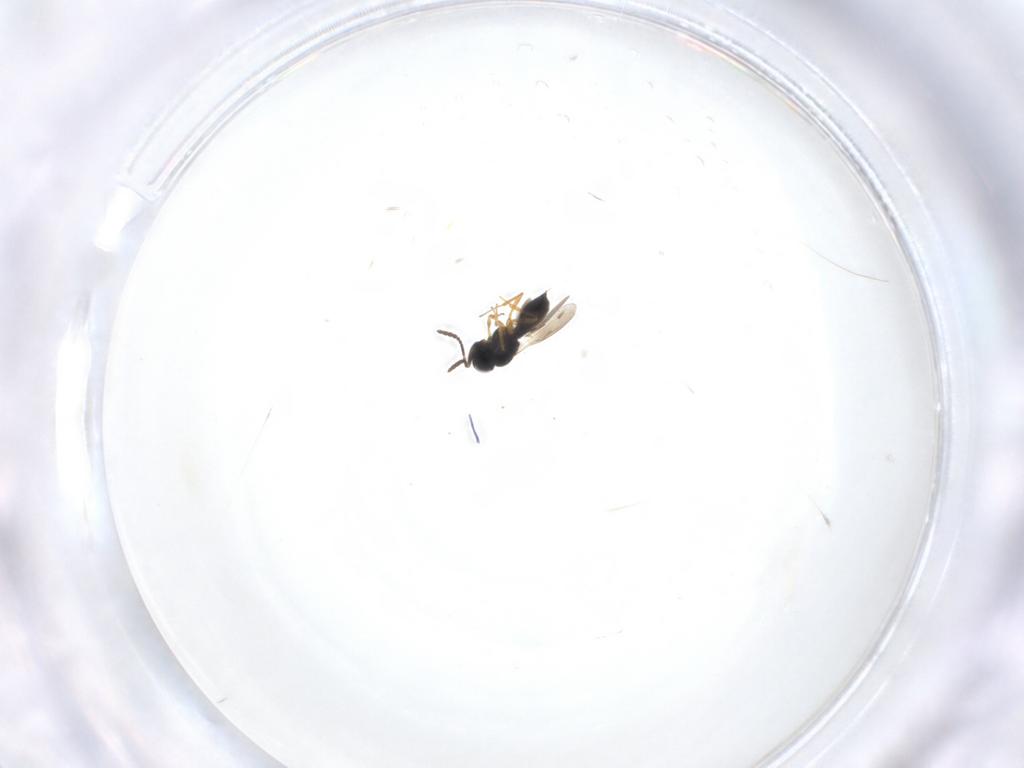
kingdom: Animalia
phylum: Arthropoda
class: Insecta
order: Hymenoptera
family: Scelionidae
